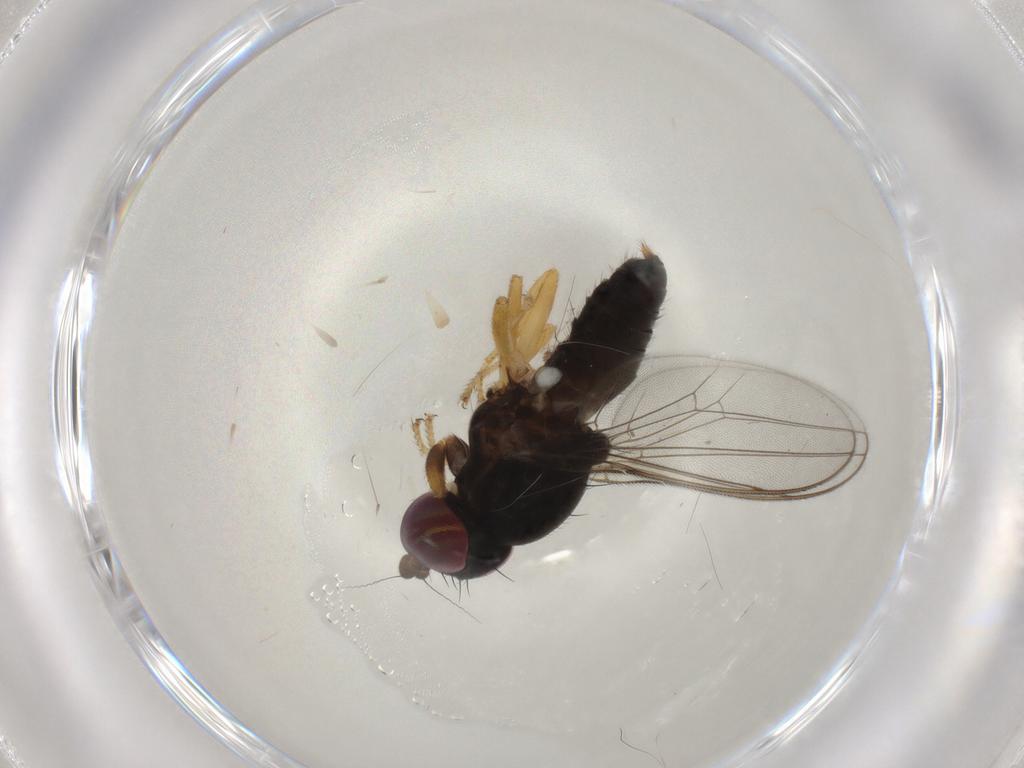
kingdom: Animalia
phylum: Arthropoda
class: Insecta
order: Diptera
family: Aulacigastridae
